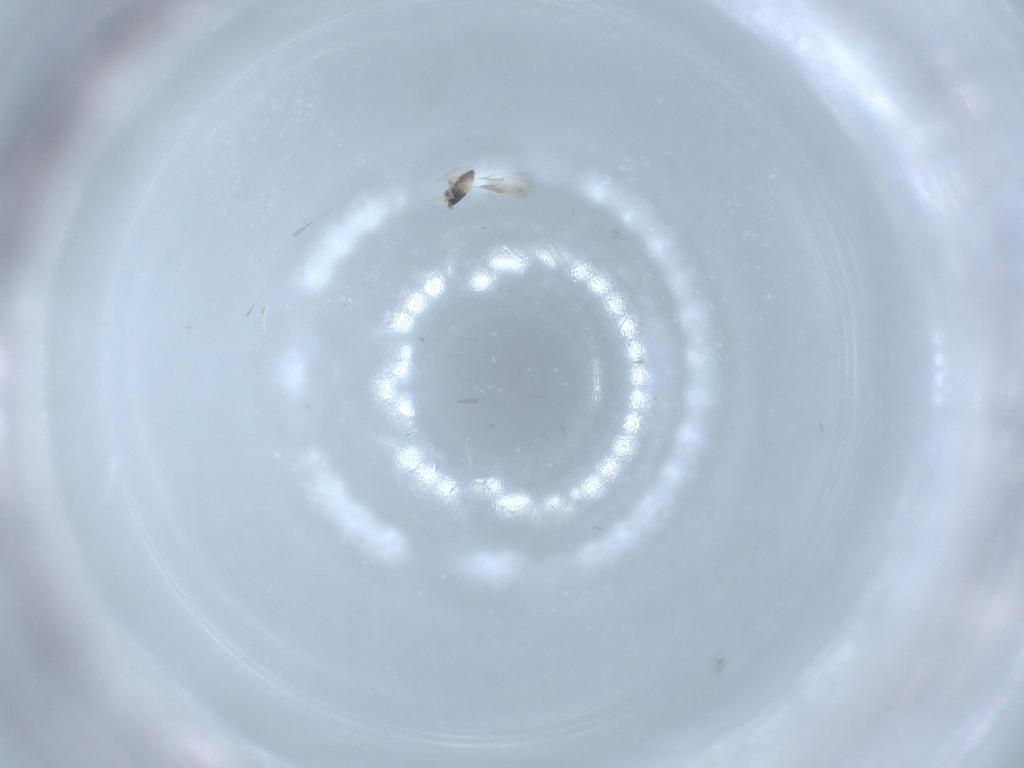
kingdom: Animalia
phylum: Arthropoda
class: Insecta
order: Hymenoptera
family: Aphelinidae
